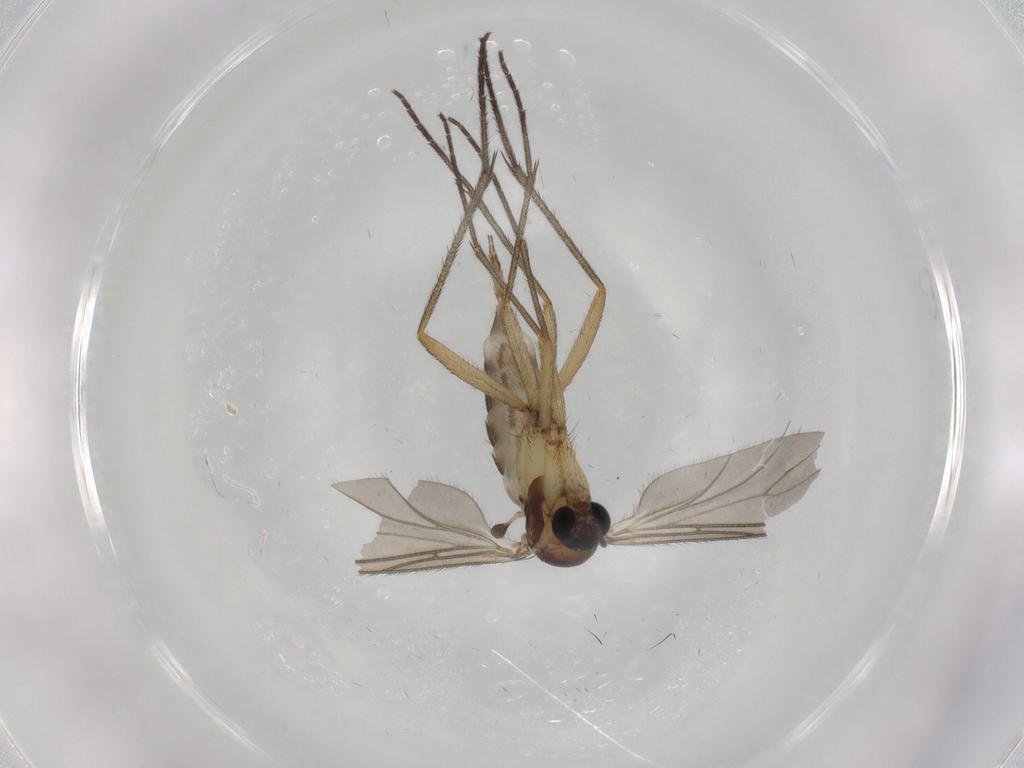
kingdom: Animalia
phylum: Arthropoda
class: Insecta
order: Diptera
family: Sciaridae
